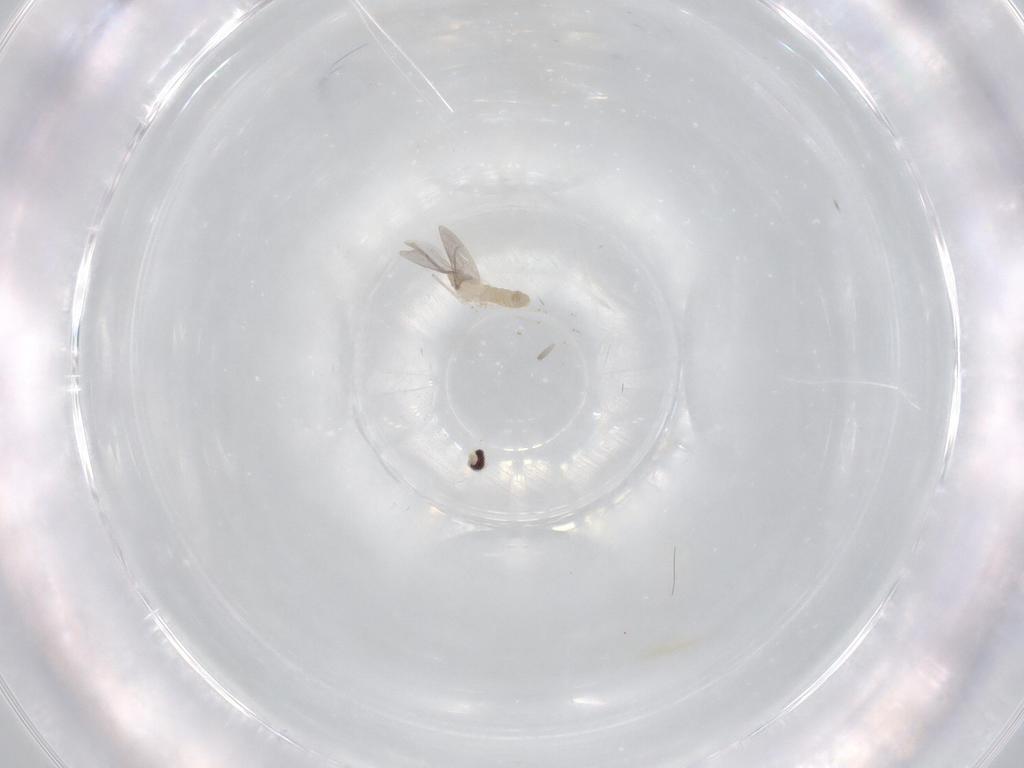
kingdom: Animalia
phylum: Arthropoda
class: Insecta
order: Diptera
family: Sciaridae
